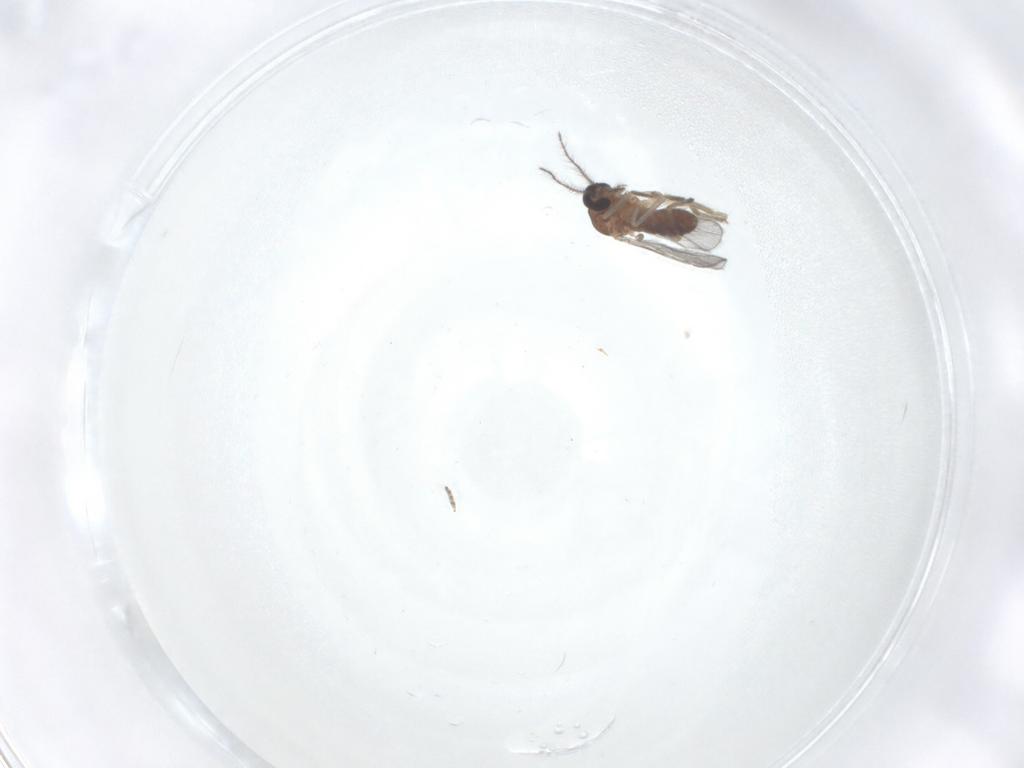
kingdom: Animalia
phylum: Arthropoda
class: Insecta
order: Diptera
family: Ceratopogonidae
